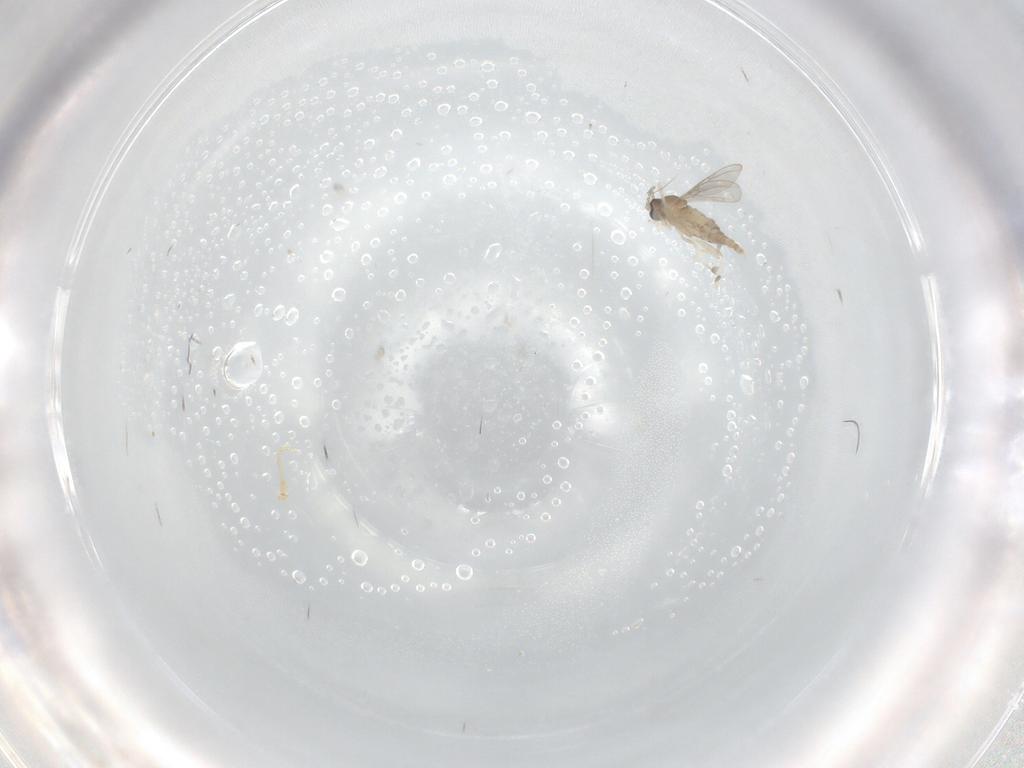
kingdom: Animalia
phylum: Arthropoda
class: Insecta
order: Diptera
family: Cecidomyiidae
